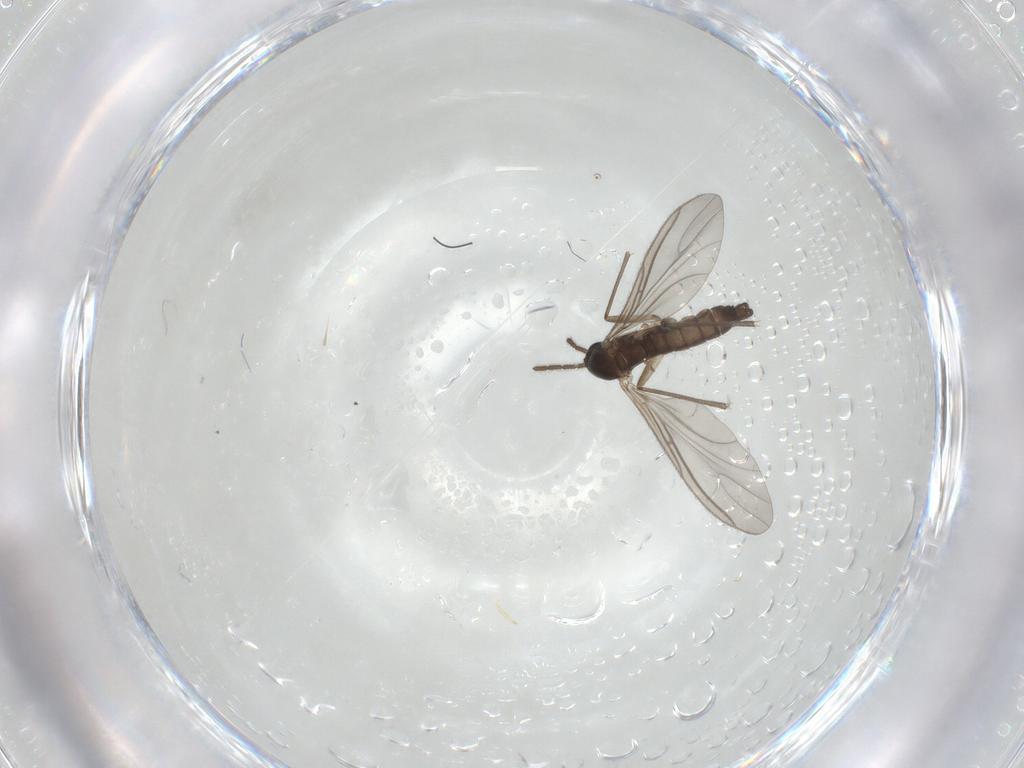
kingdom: Animalia
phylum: Arthropoda
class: Insecta
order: Diptera
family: Sciaridae
